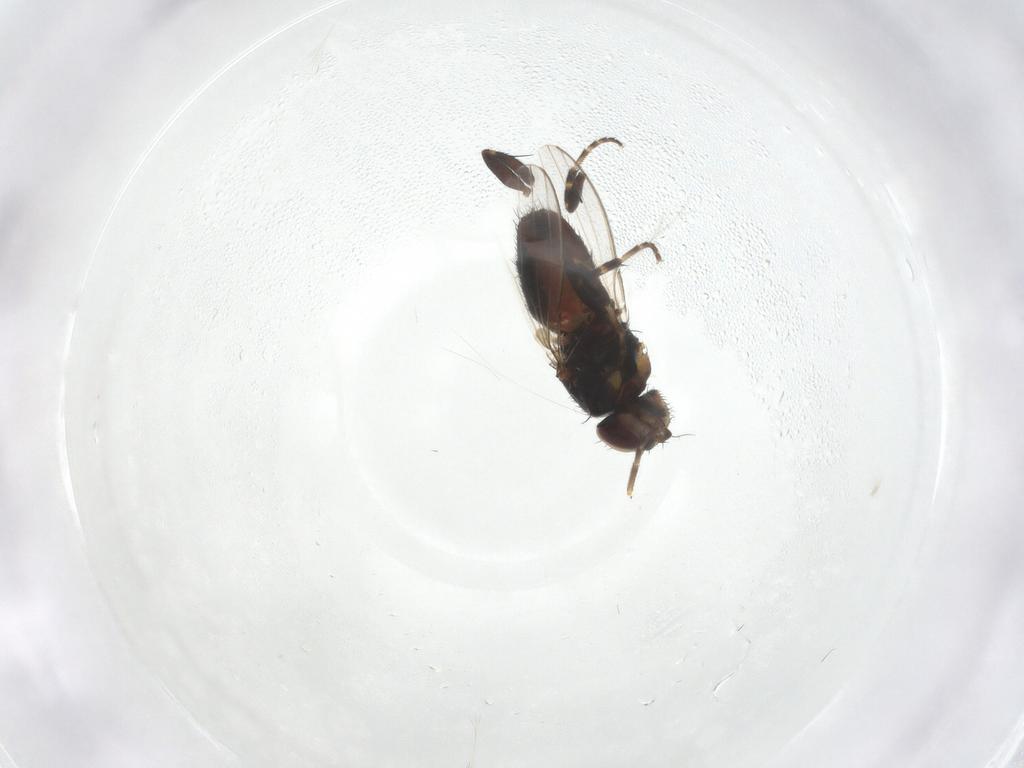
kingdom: Animalia
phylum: Arthropoda
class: Insecta
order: Diptera
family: Milichiidae
